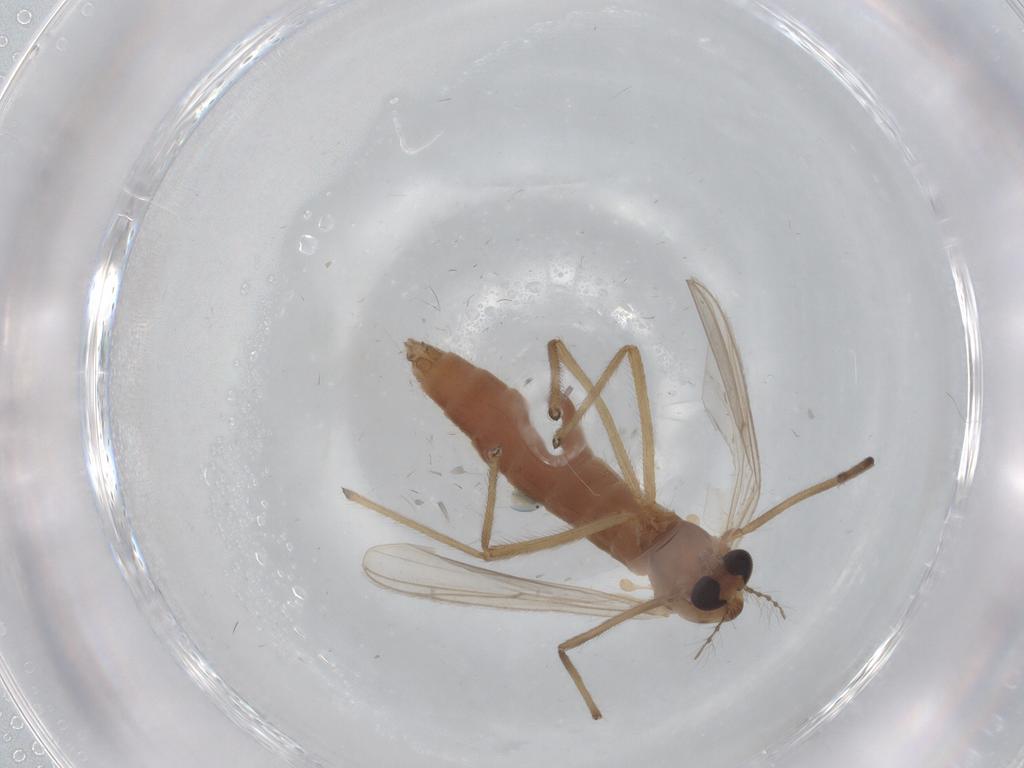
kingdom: Animalia
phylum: Arthropoda
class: Insecta
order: Diptera
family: Chironomidae
